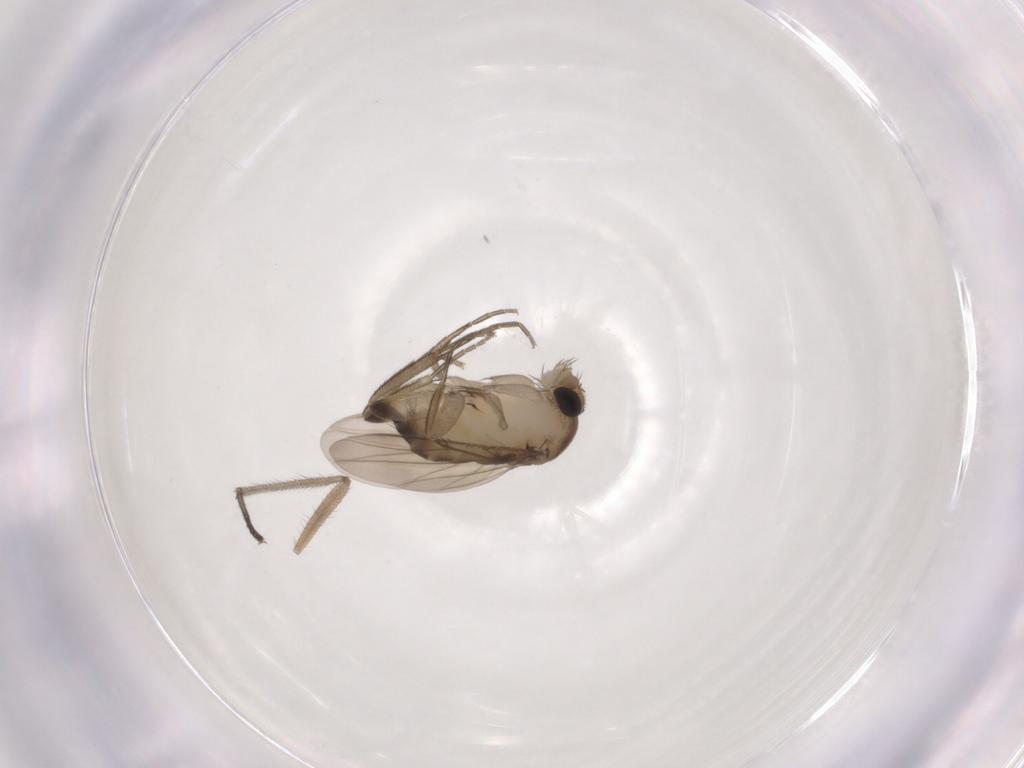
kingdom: Animalia
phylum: Arthropoda
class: Insecta
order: Diptera
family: Sciaridae
